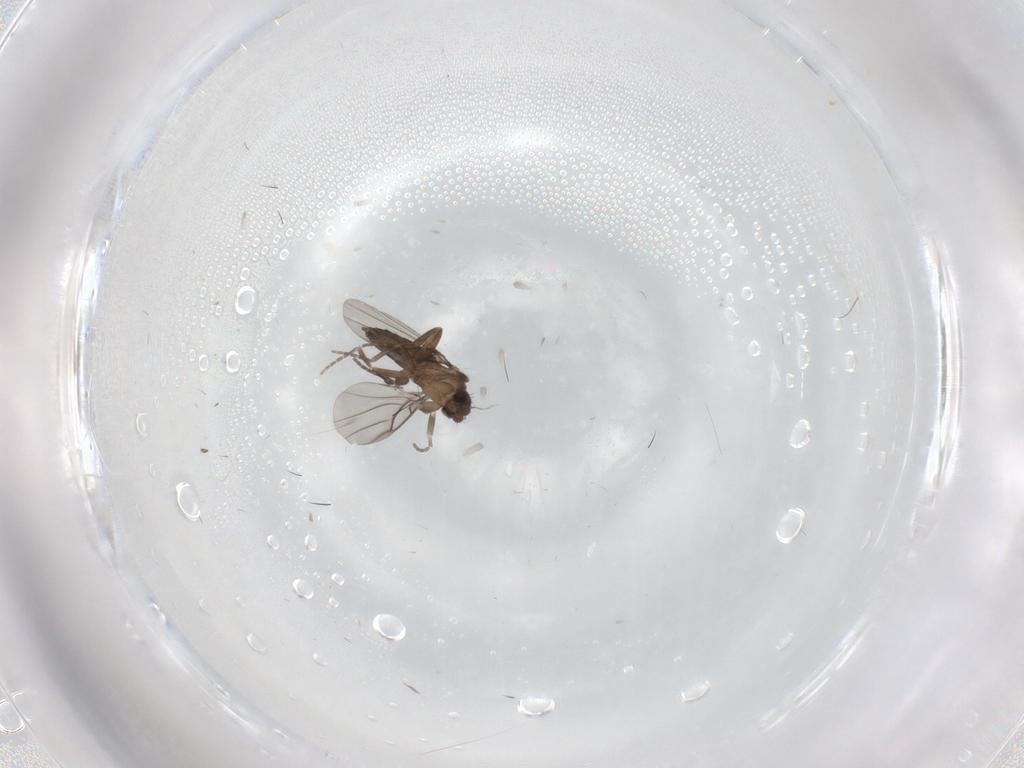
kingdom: Animalia
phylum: Arthropoda
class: Insecta
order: Diptera
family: Phoridae
